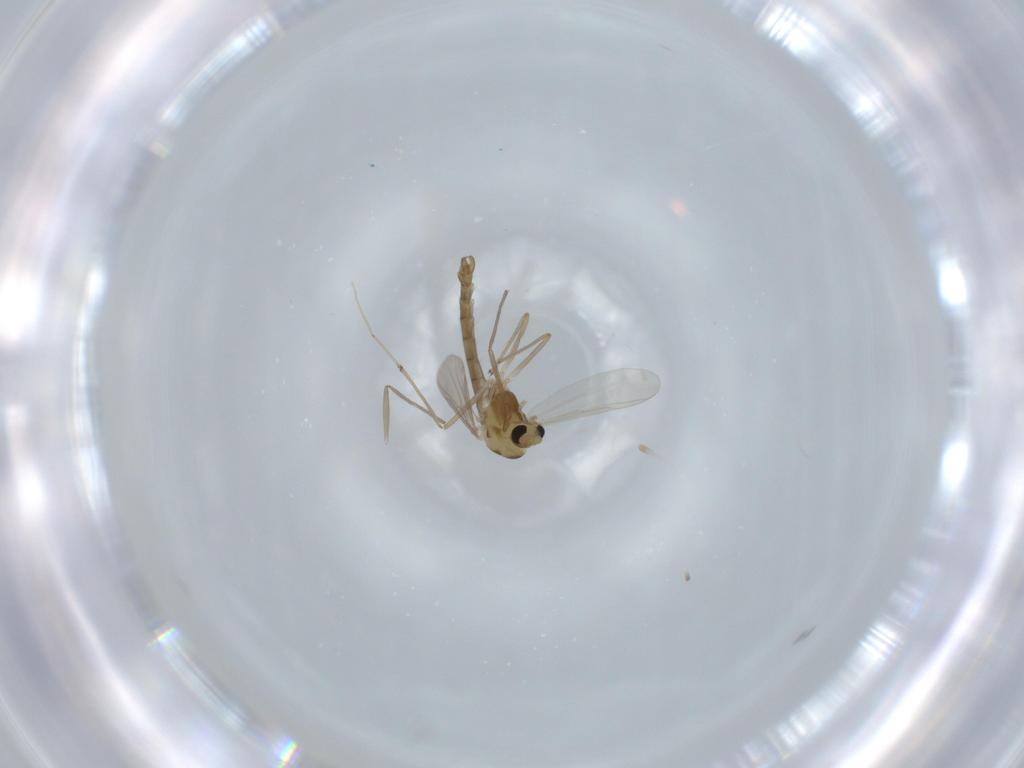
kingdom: Animalia
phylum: Arthropoda
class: Insecta
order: Diptera
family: Chironomidae
